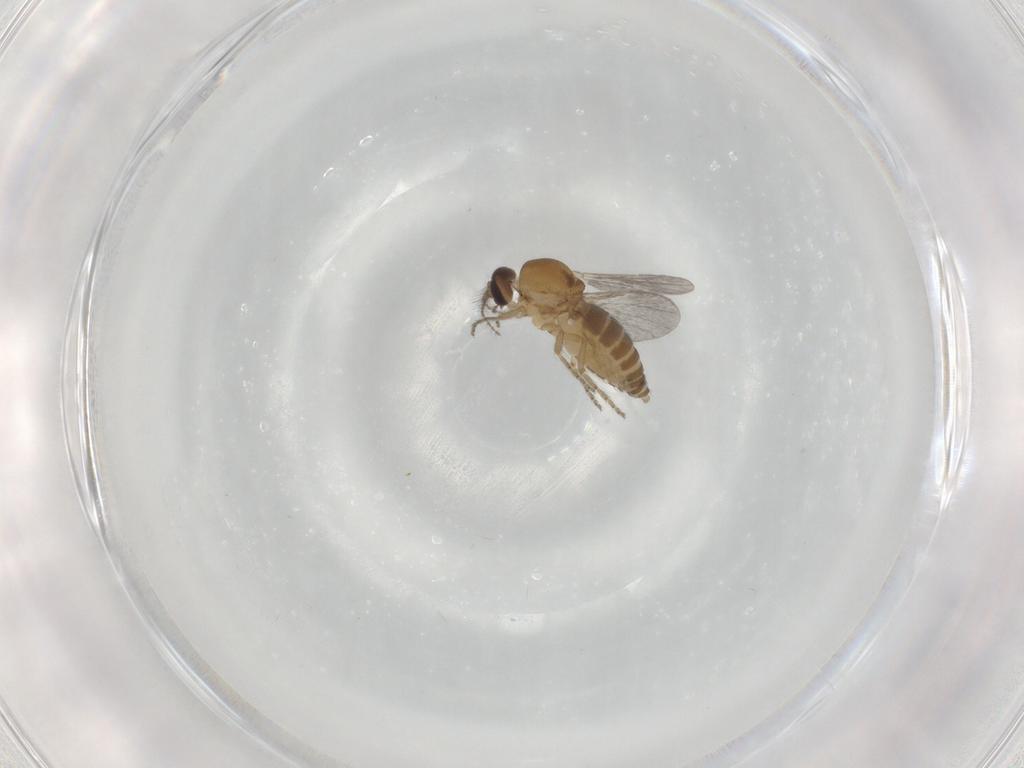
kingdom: Animalia
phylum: Arthropoda
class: Insecta
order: Diptera
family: Ceratopogonidae
